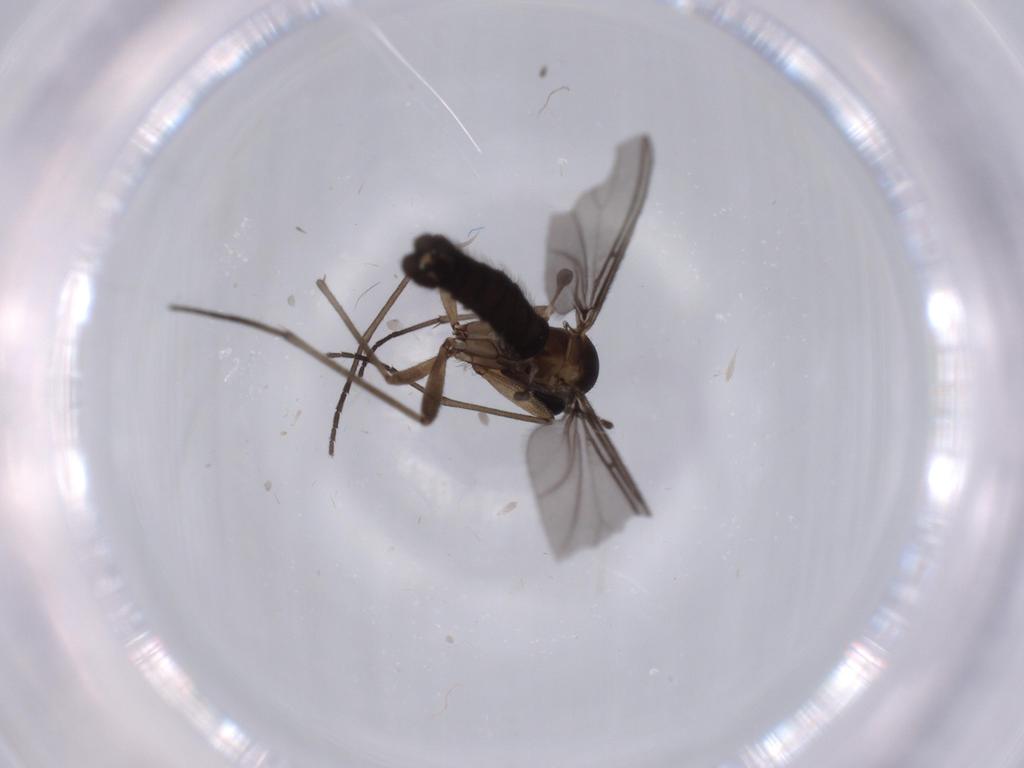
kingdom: Animalia
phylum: Arthropoda
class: Insecta
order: Diptera
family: Sciaridae
